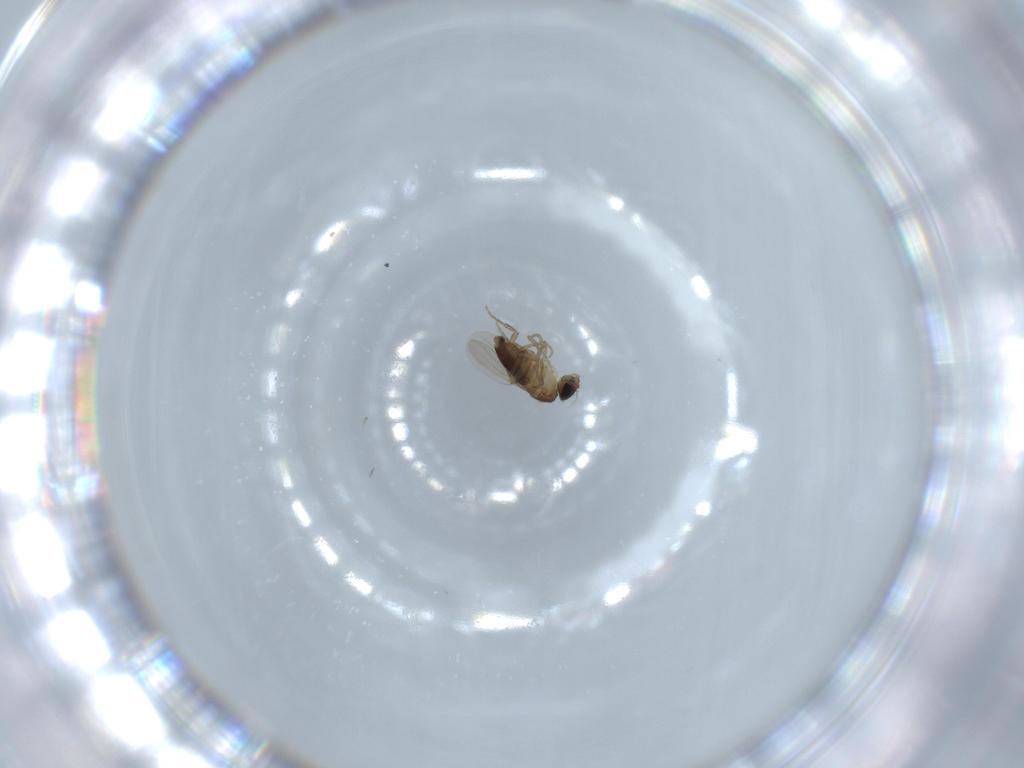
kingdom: Animalia
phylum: Arthropoda
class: Insecta
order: Diptera
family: Phoridae
